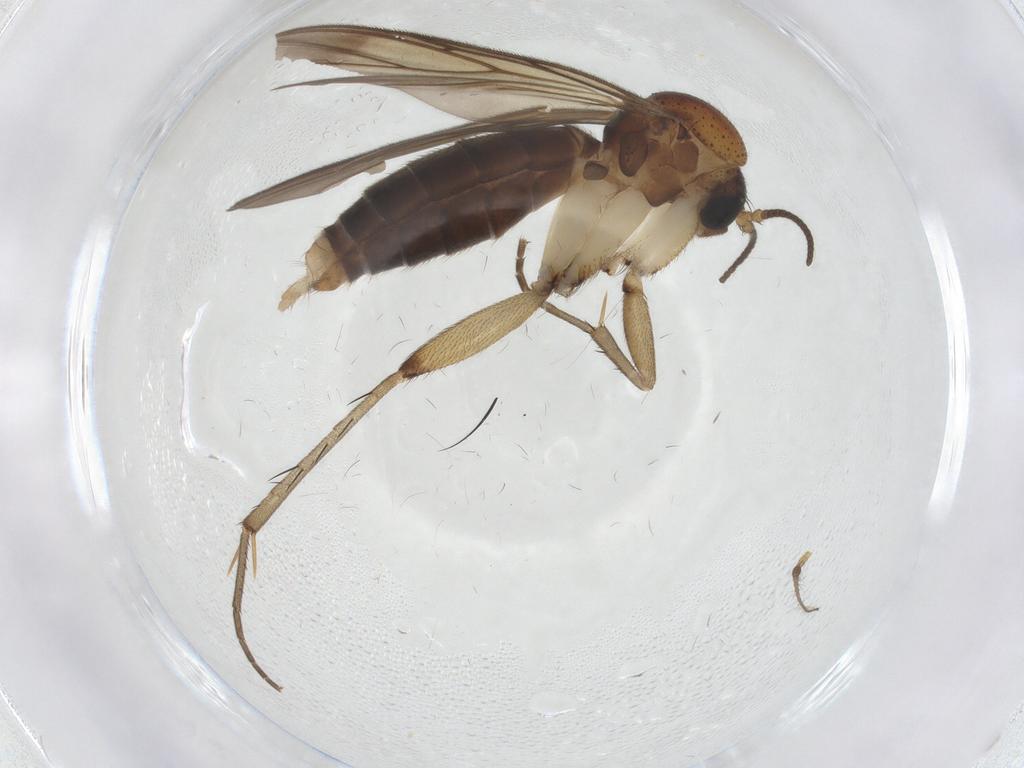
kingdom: Animalia
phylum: Arthropoda
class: Insecta
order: Diptera
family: Mycetophilidae
